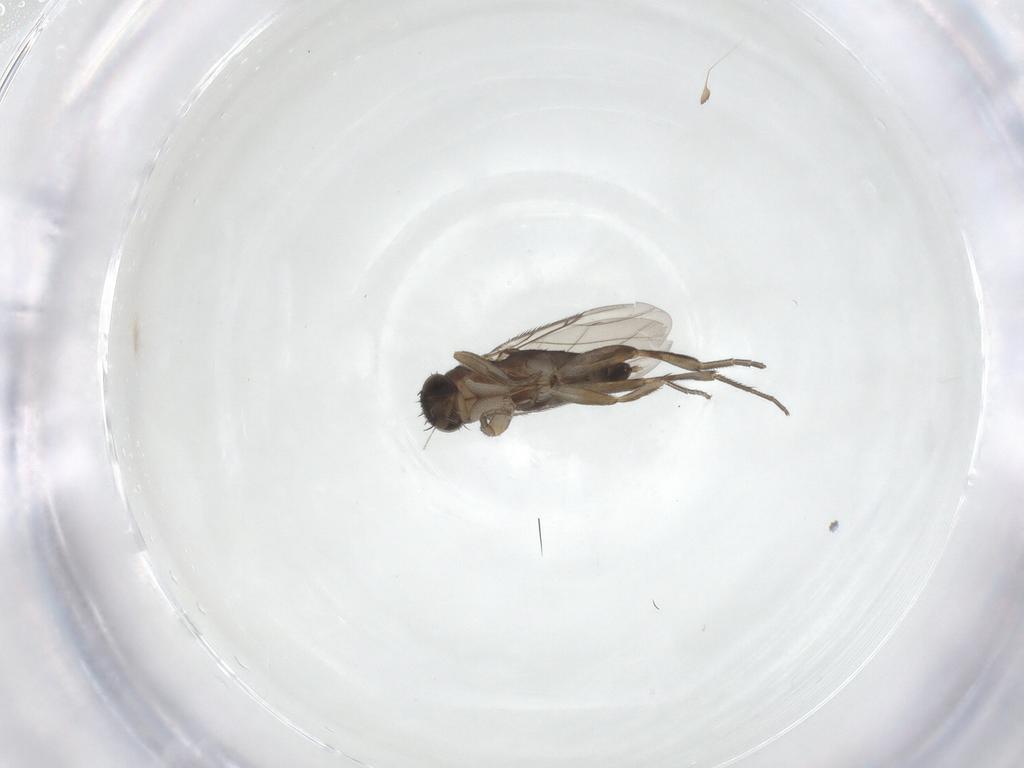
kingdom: Animalia
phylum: Arthropoda
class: Insecta
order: Diptera
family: Phoridae
